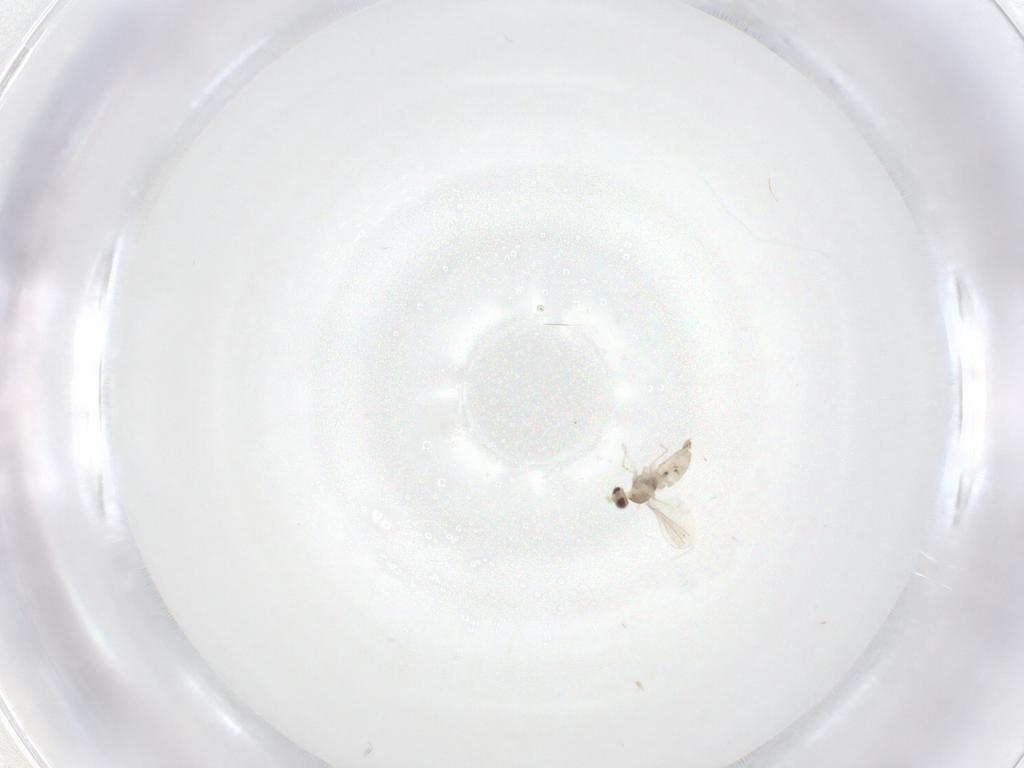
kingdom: Animalia
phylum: Arthropoda
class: Insecta
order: Diptera
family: Cecidomyiidae
